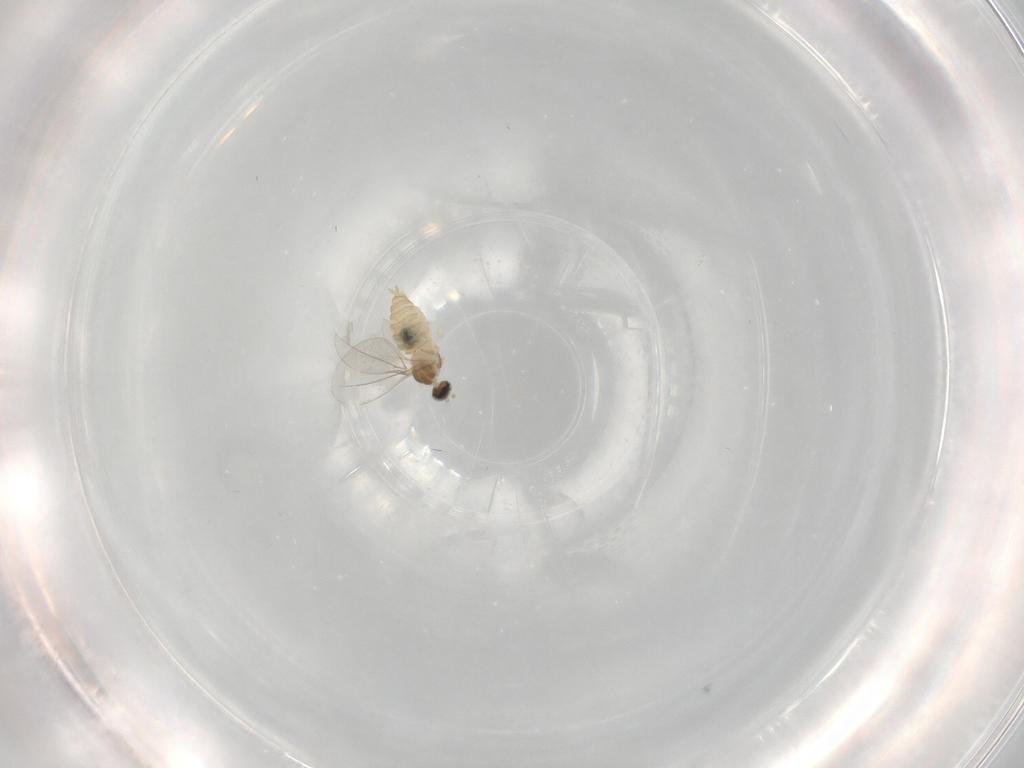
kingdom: Animalia
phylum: Arthropoda
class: Insecta
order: Diptera
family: Cecidomyiidae
